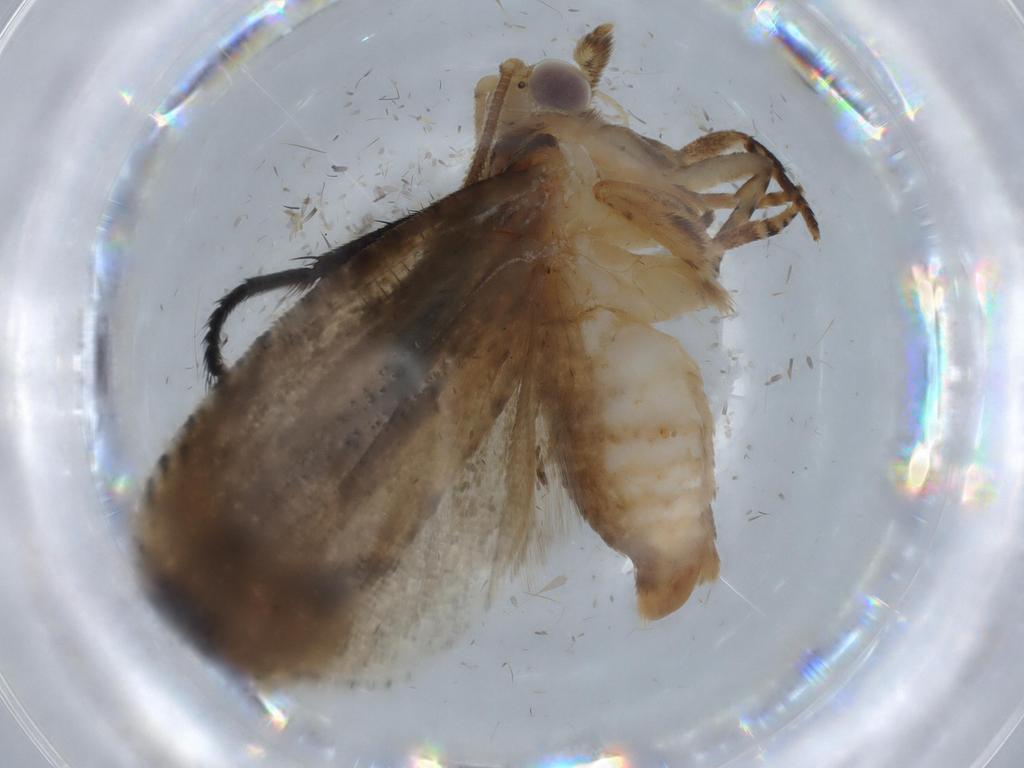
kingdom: Animalia
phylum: Arthropoda
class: Insecta
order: Lepidoptera
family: Tortricidae
